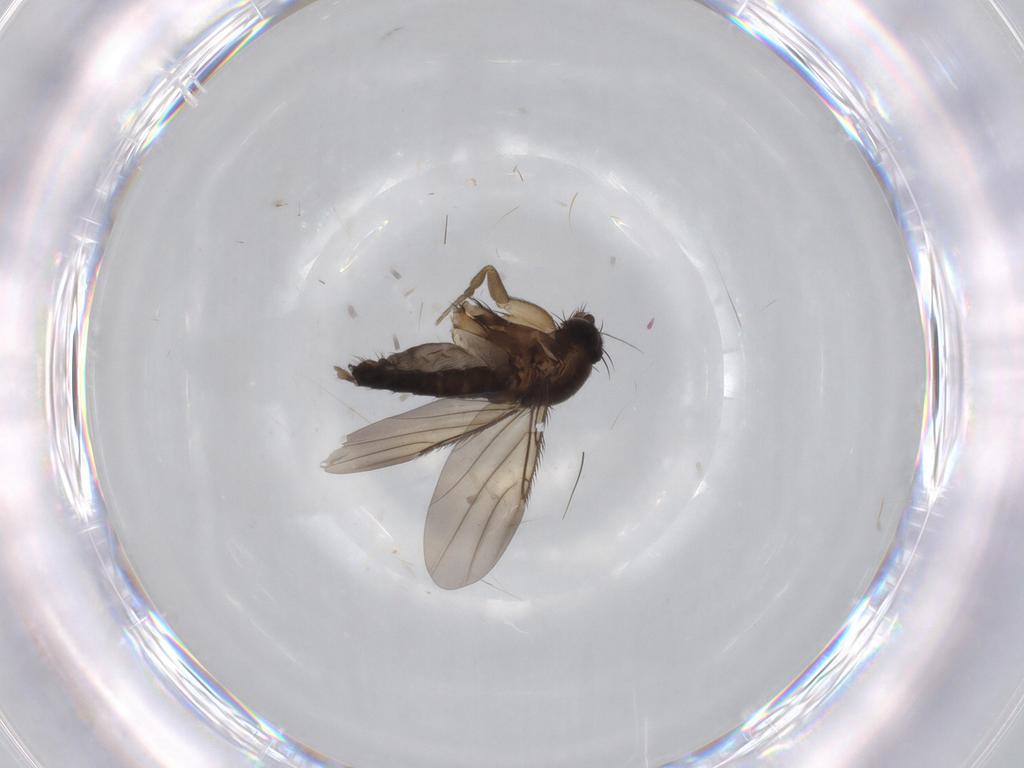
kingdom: Animalia
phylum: Arthropoda
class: Insecta
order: Diptera
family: Phoridae
